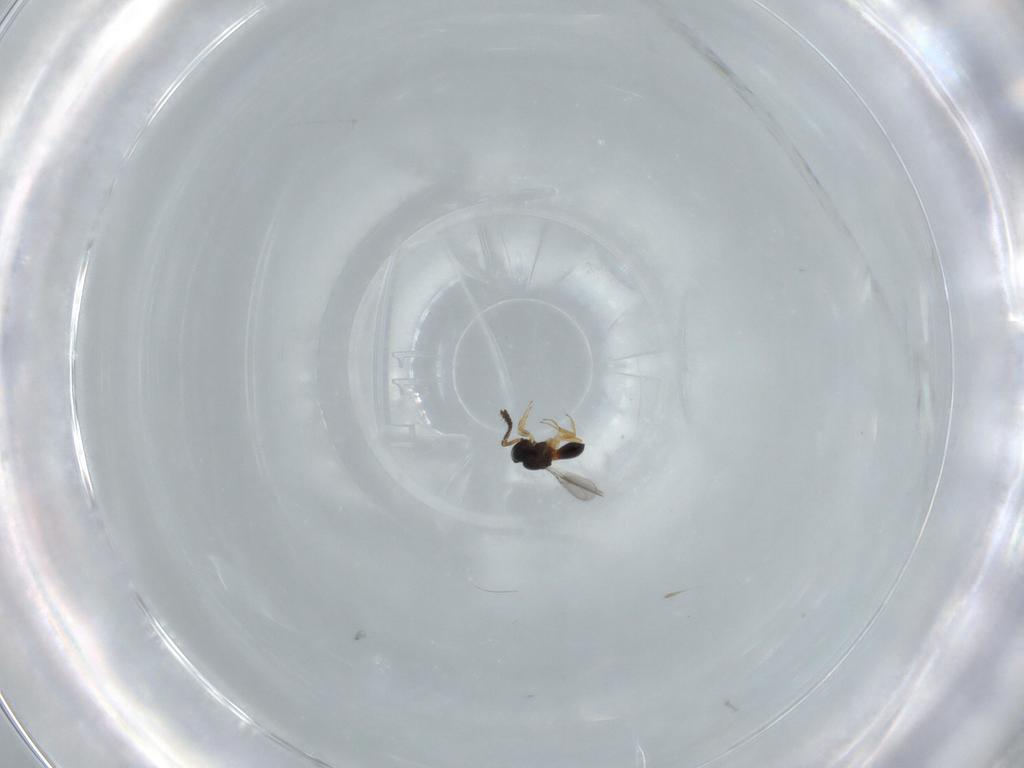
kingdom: Animalia
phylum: Arthropoda
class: Insecta
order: Hymenoptera
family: Scelionidae
